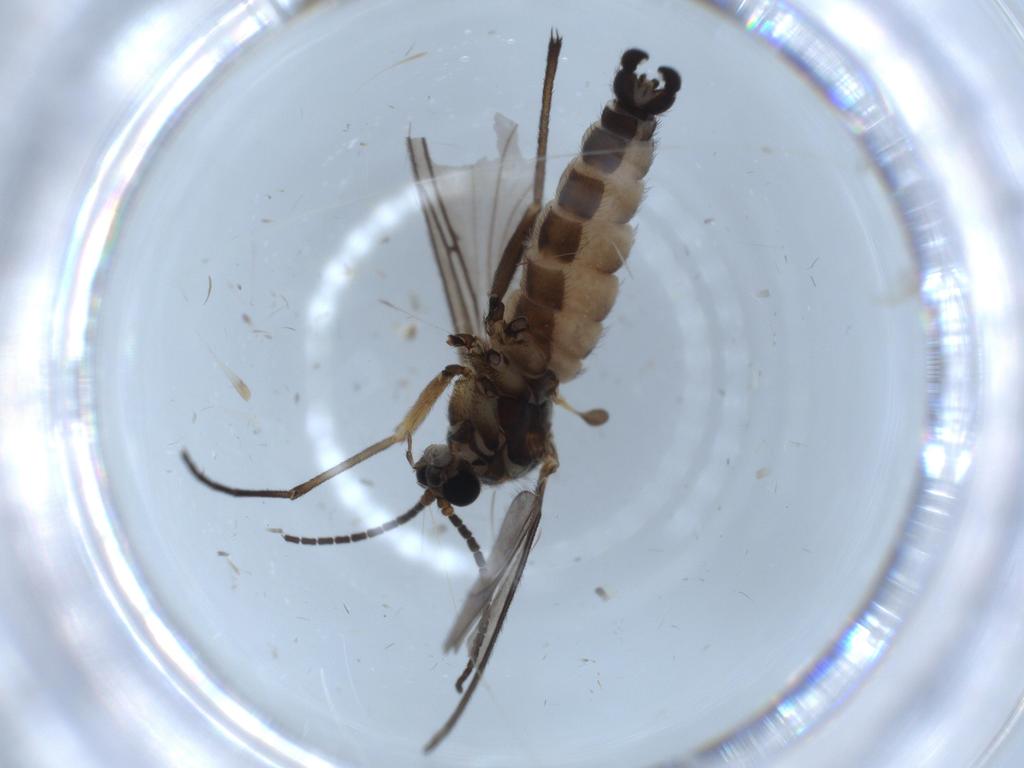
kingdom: Animalia
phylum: Arthropoda
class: Insecta
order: Diptera
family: Sciaridae
